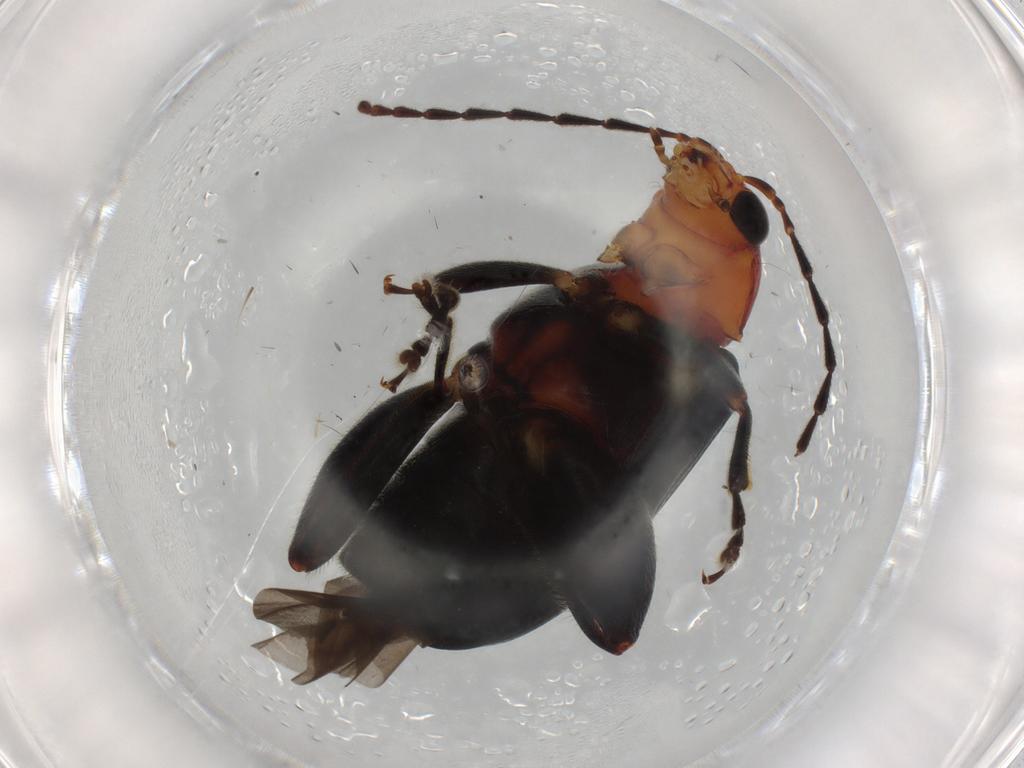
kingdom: Animalia
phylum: Arthropoda
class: Insecta
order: Coleoptera
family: Chrysomelidae
